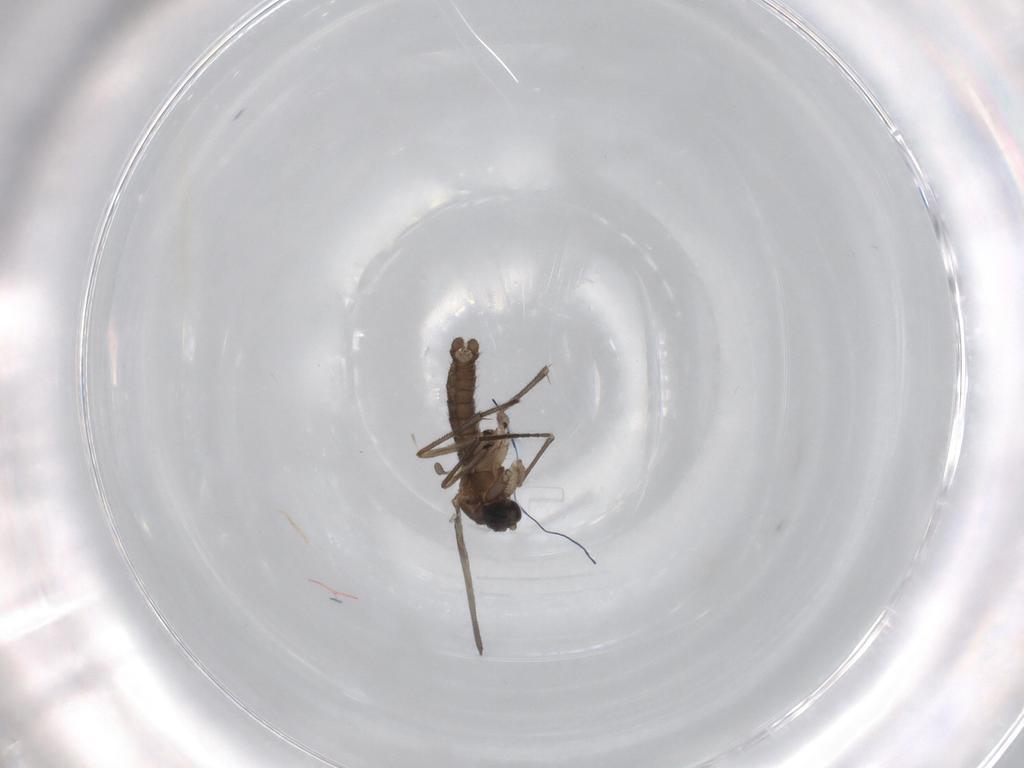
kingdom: Animalia
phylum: Arthropoda
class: Insecta
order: Diptera
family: Sciaridae
